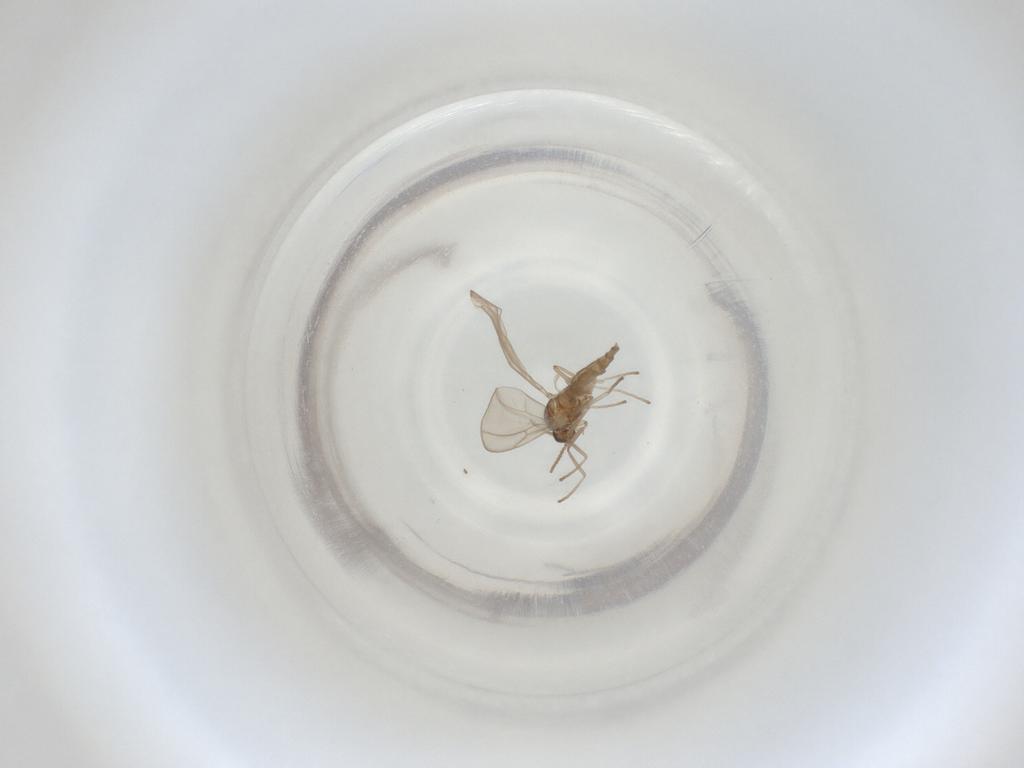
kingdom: Animalia
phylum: Arthropoda
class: Insecta
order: Diptera
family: Cecidomyiidae
